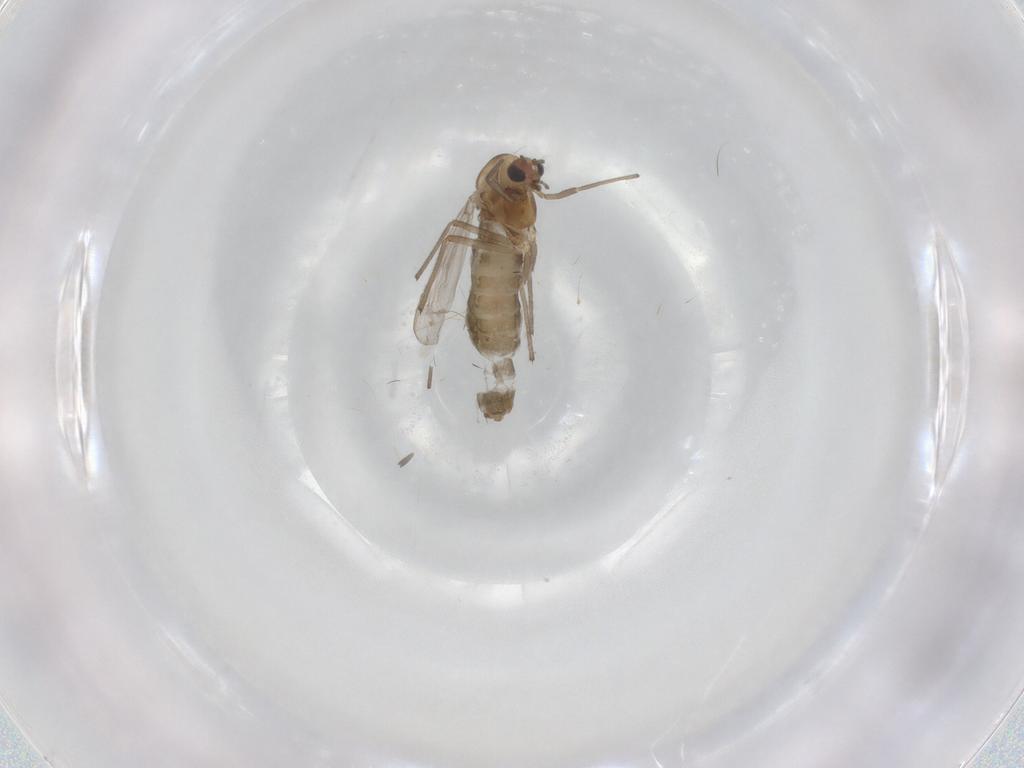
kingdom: Animalia
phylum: Arthropoda
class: Insecta
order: Diptera
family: Chironomidae
